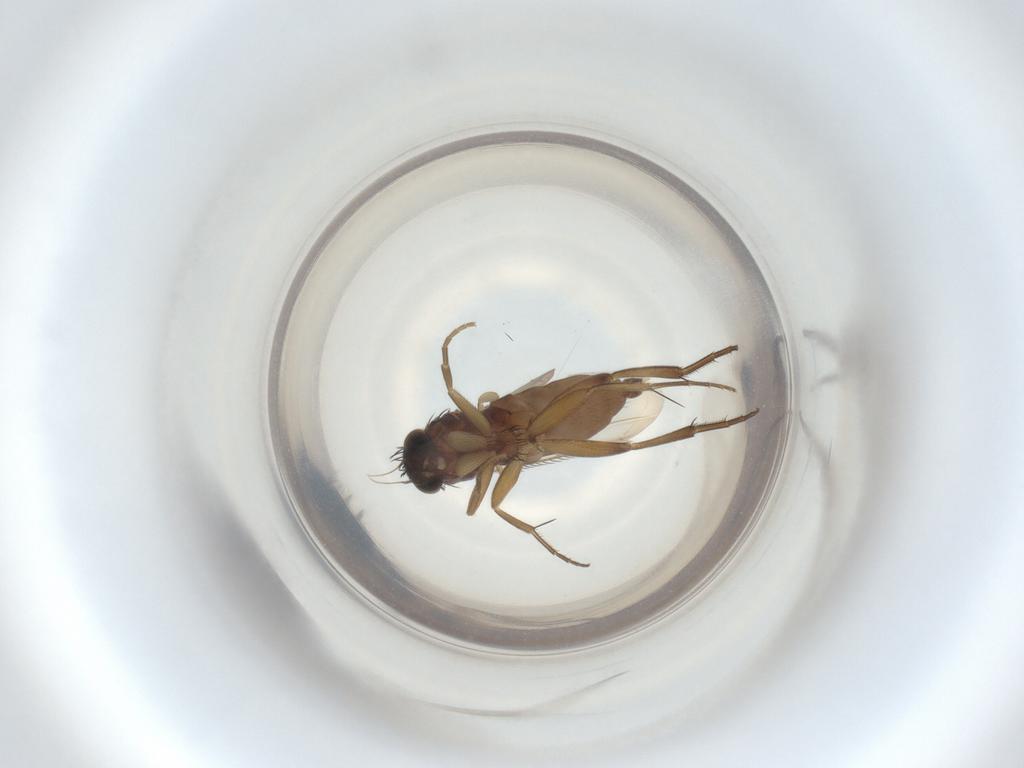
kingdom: Animalia
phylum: Arthropoda
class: Insecta
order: Diptera
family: Phoridae
